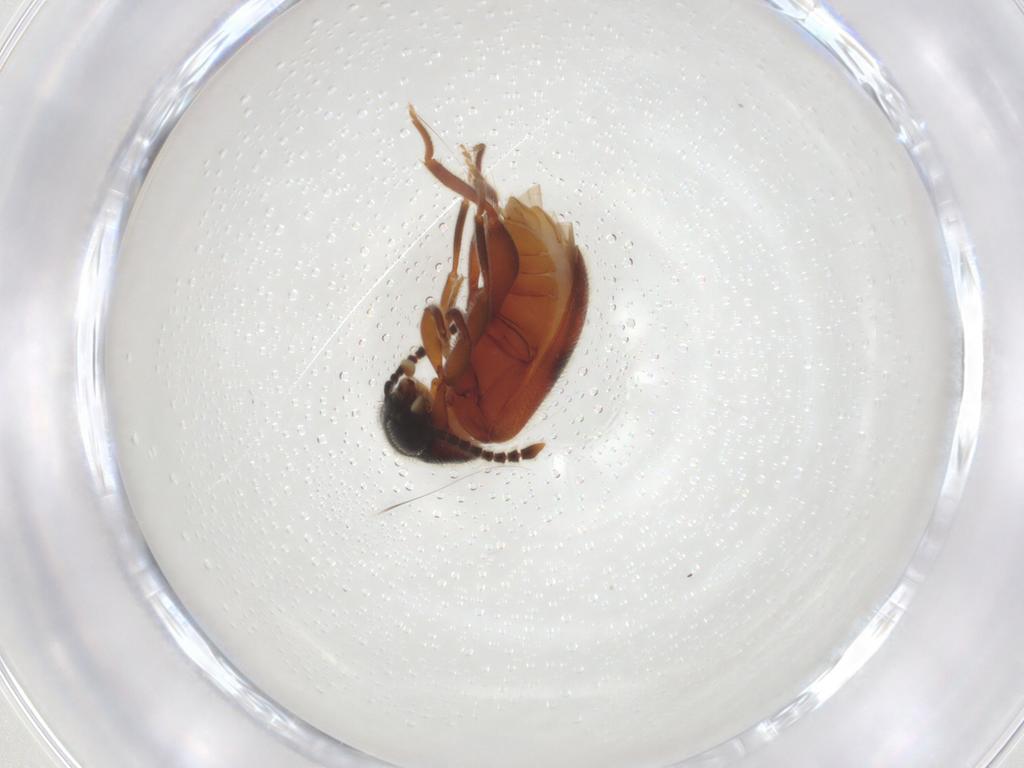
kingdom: Animalia
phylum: Arthropoda
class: Insecta
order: Coleoptera
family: Aderidae
